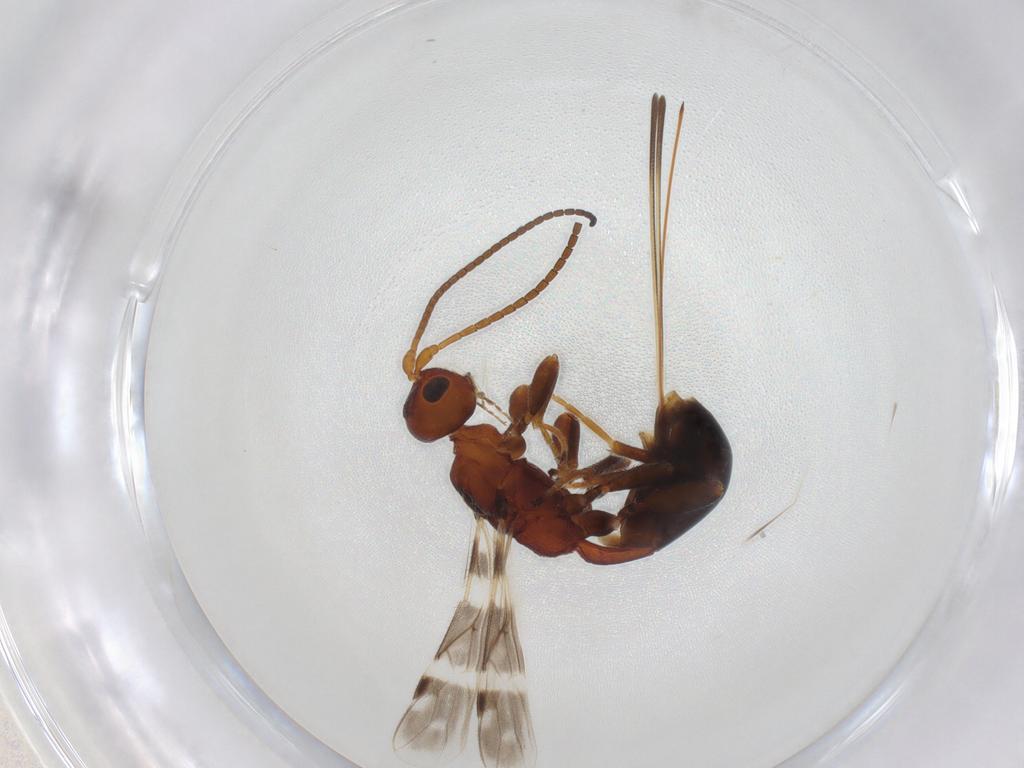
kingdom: Animalia
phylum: Arthropoda
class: Insecta
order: Hymenoptera
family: Braconidae
